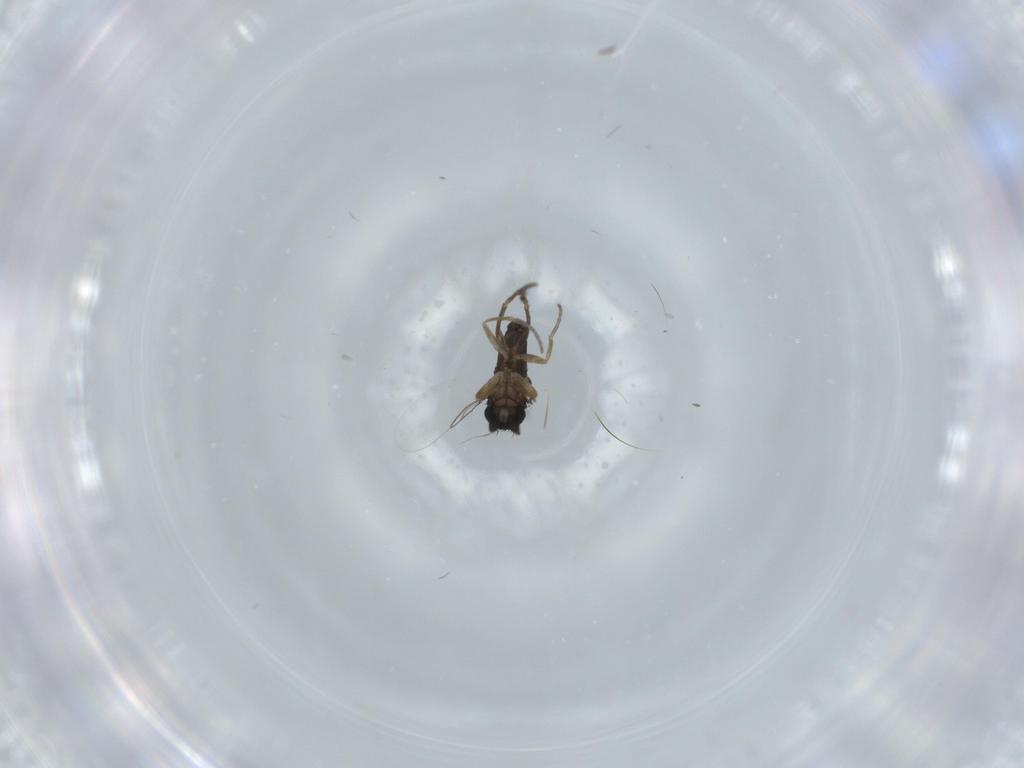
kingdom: Animalia
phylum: Arthropoda
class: Insecta
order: Diptera
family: Phoridae
